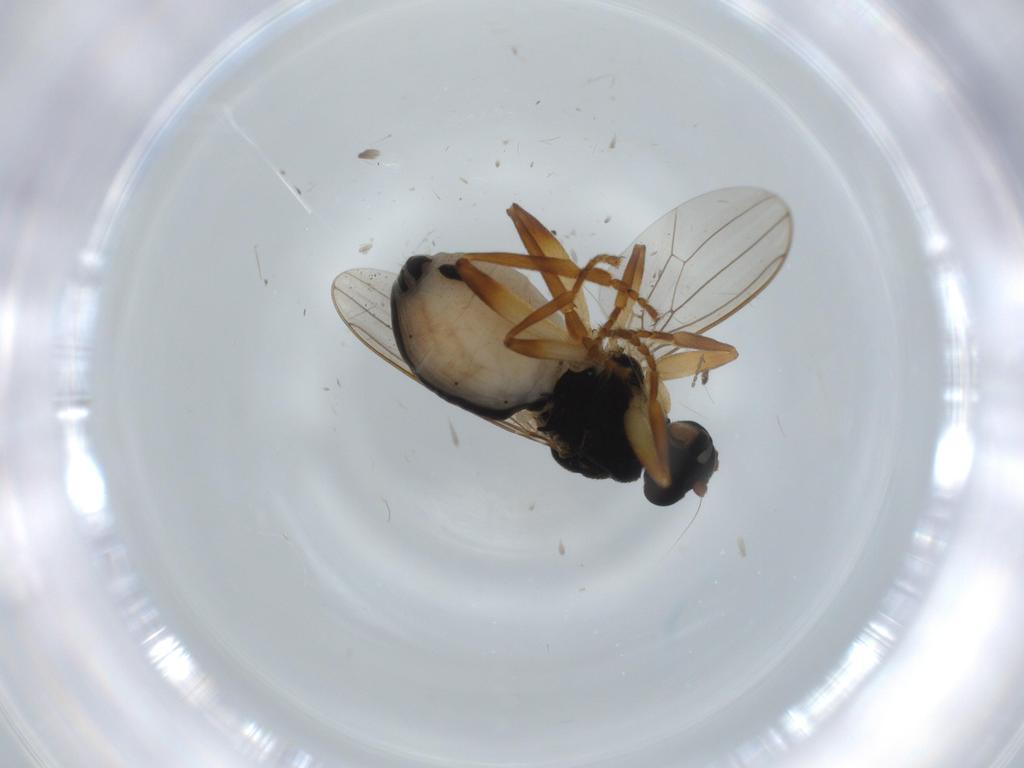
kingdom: Animalia
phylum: Arthropoda
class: Insecta
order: Diptera
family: Sphaeroceridae
